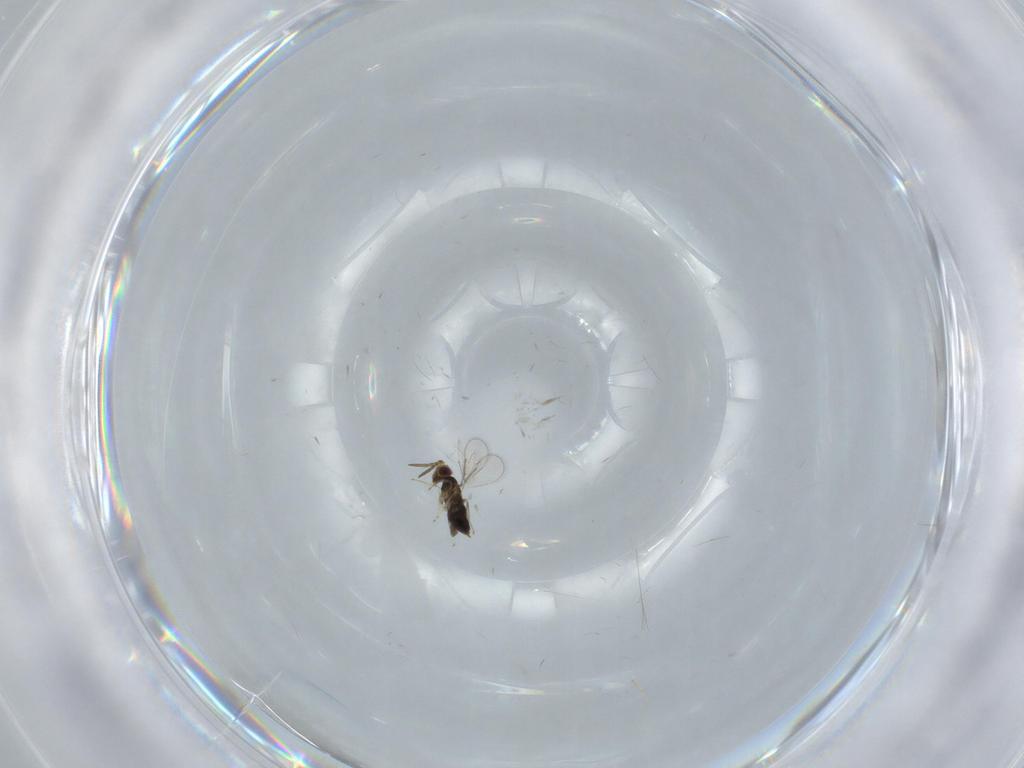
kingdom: Animalia
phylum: Arthropoda
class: Insecta
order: Hymenoptera
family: Aphelinidae
